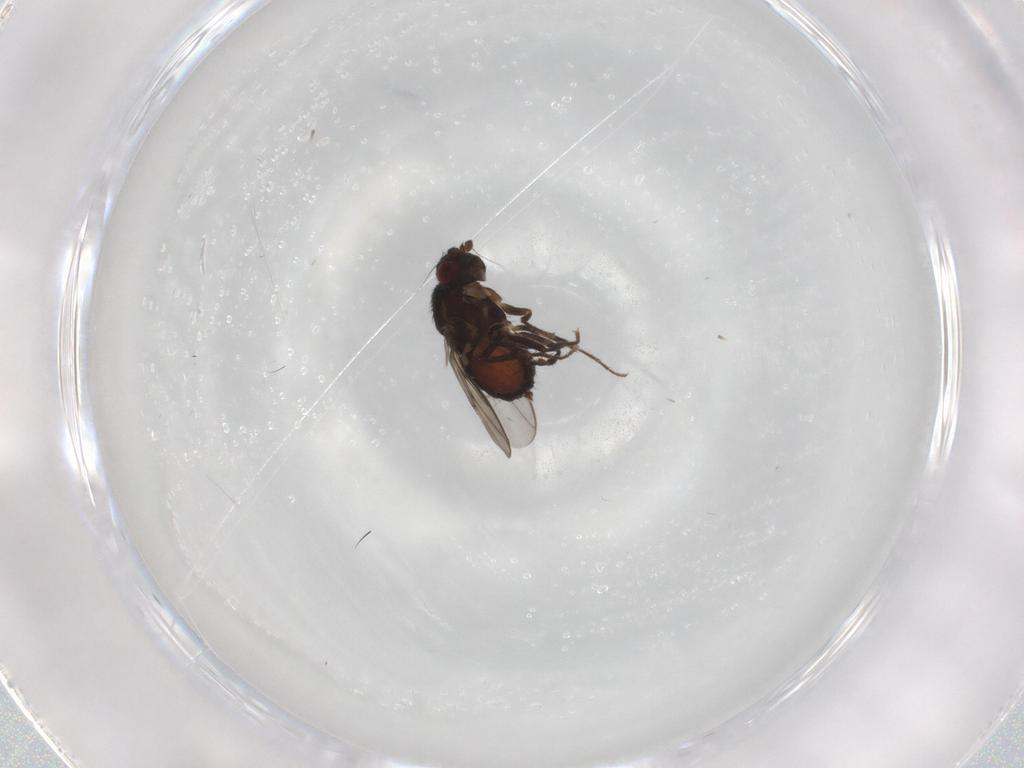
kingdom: Animalia
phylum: Arthropoda
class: Insecta
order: Diptera
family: Sphaeroceridae
